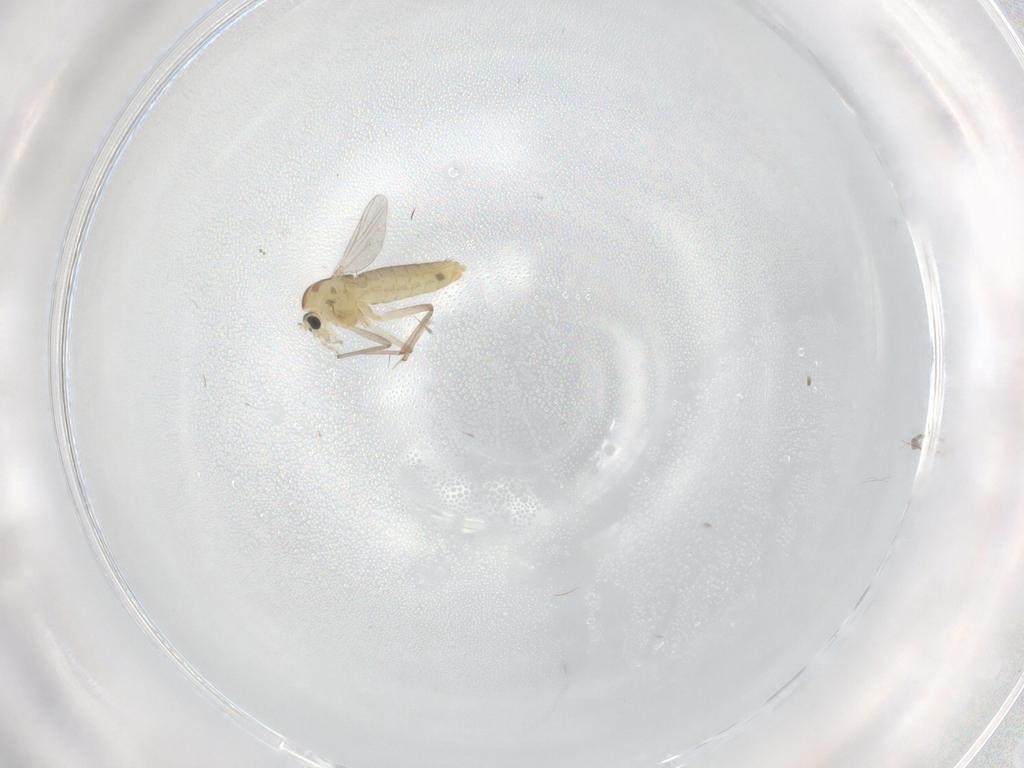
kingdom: Animalia
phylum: Arthropoda
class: Insecta
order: Diptera
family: Chironomidae
